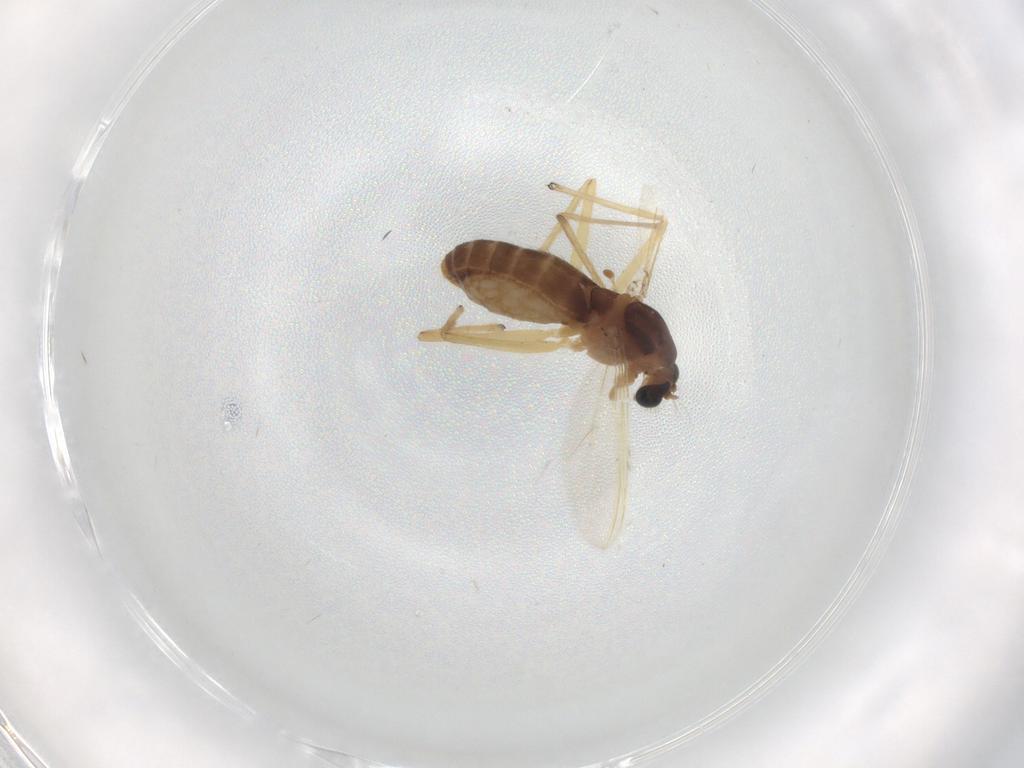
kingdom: Animalia
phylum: Arthropoda
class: Insecta
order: Diptera
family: Chironomidae
